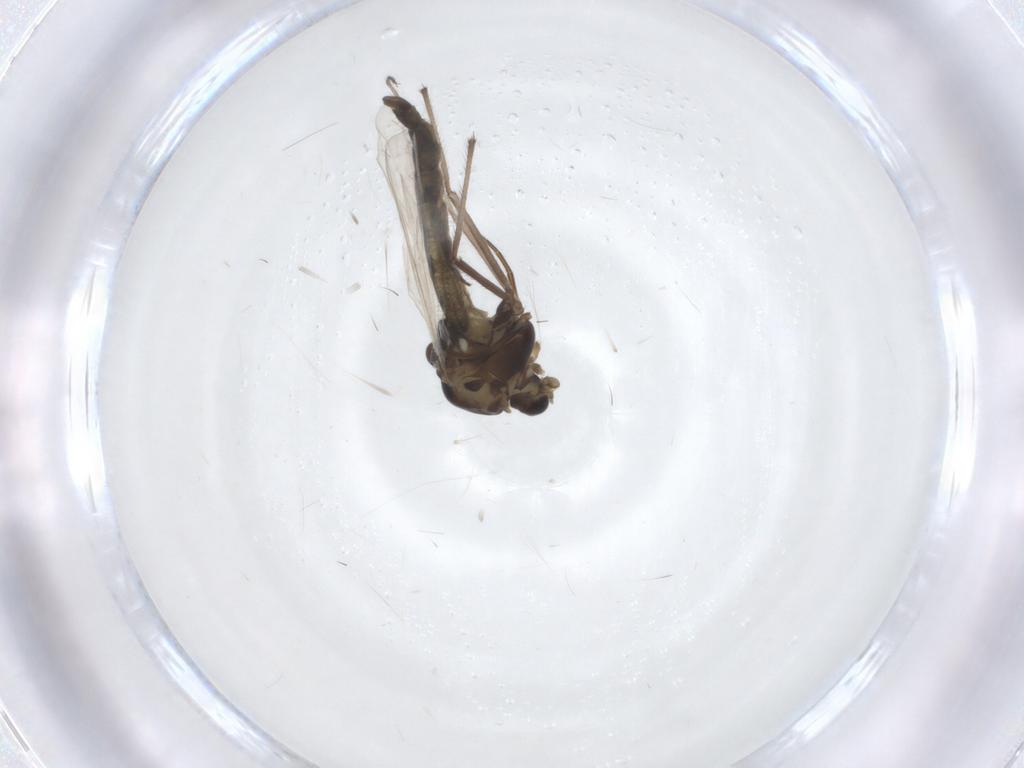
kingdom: Animalia
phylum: Arthropoda
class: Insecta
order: Diptera
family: Chironomidae
